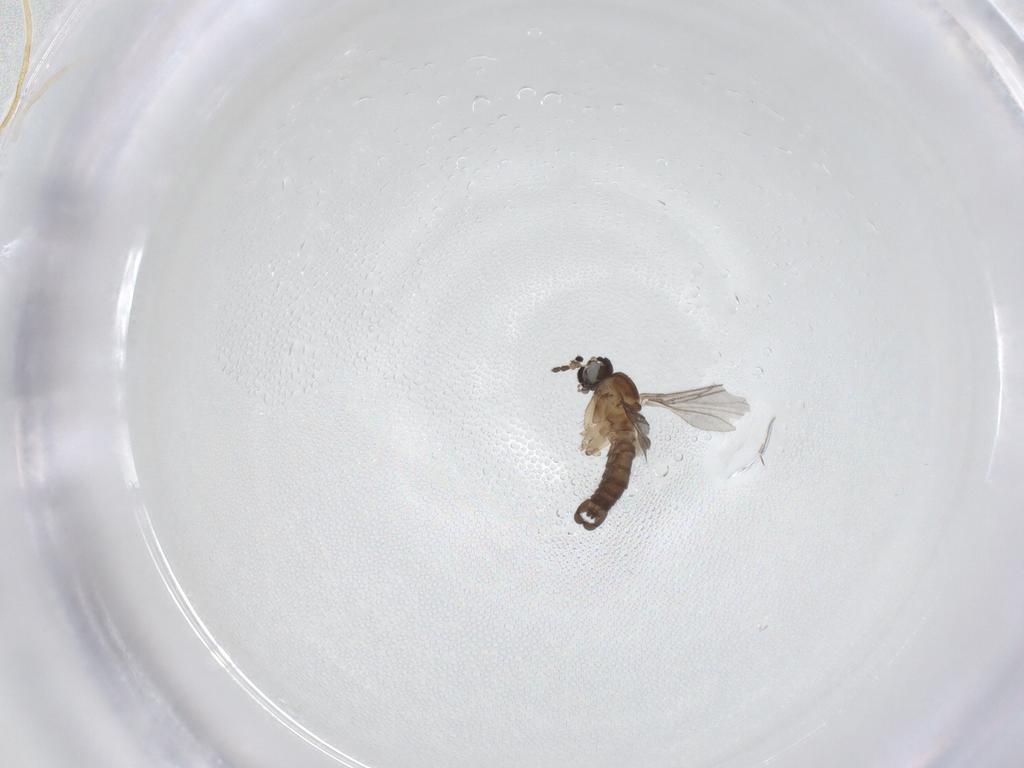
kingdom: Animalia
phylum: Arthropoda
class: Insecta
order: Diptera
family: Sciaridae
